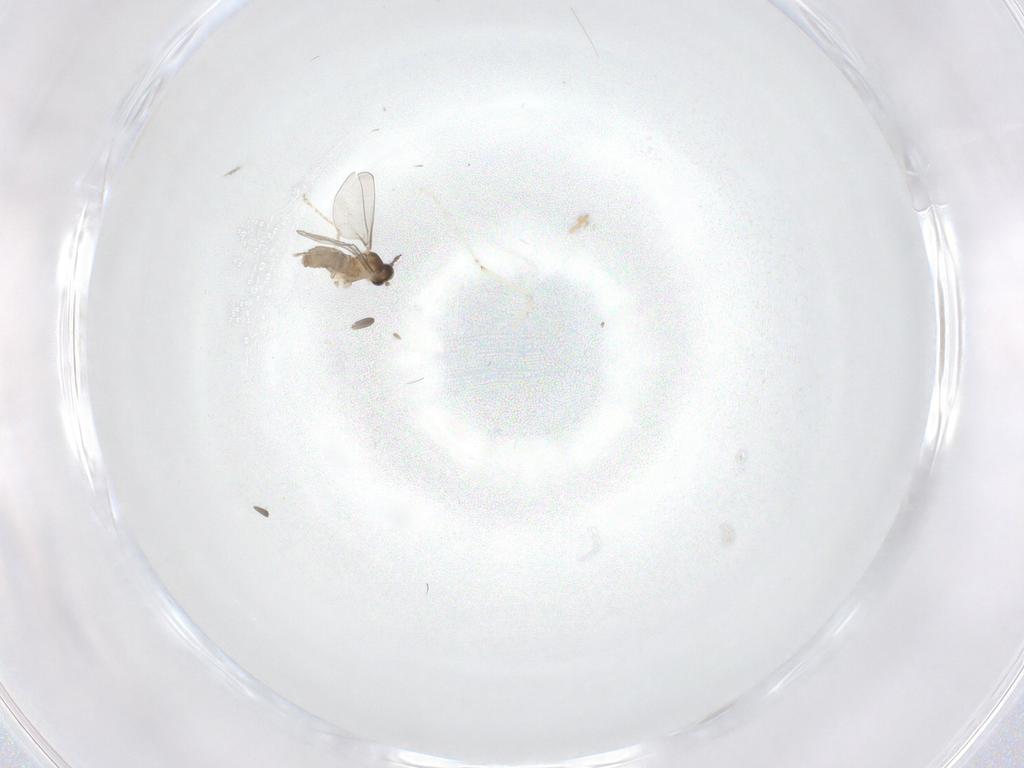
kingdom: Animalia
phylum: Arthropoda
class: Insecta
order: Diptera
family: Cecidomyiidae
